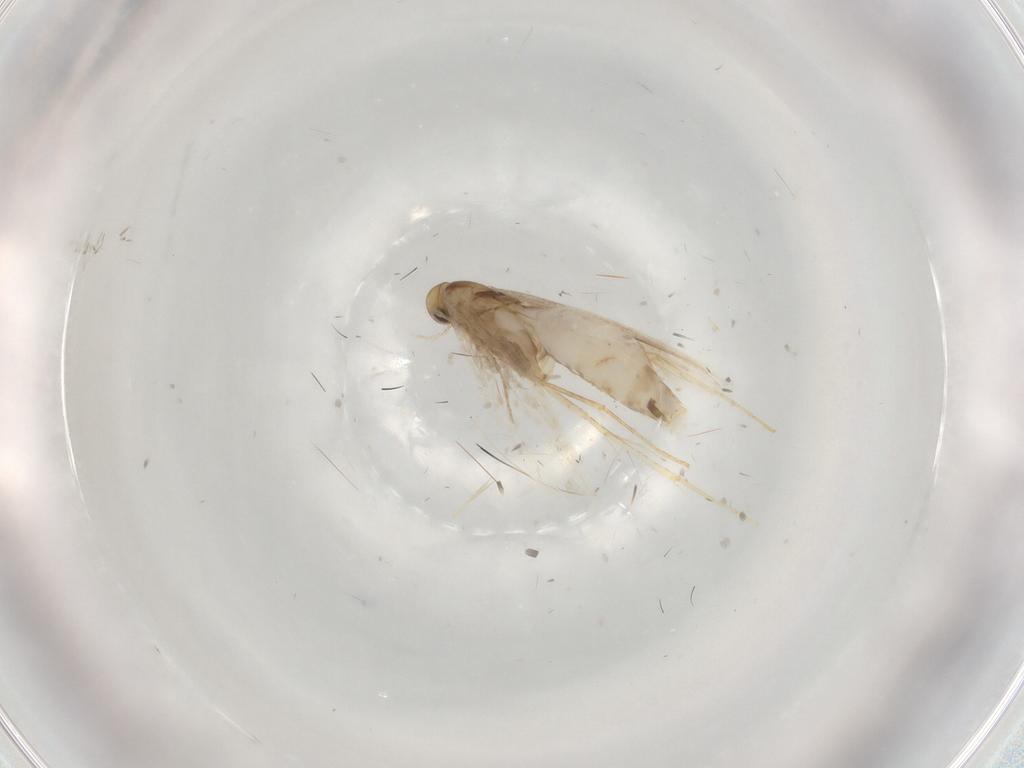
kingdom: Animalia
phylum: Arthropoda
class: Insecta
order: Lepidoptera
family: Gracillariidae
